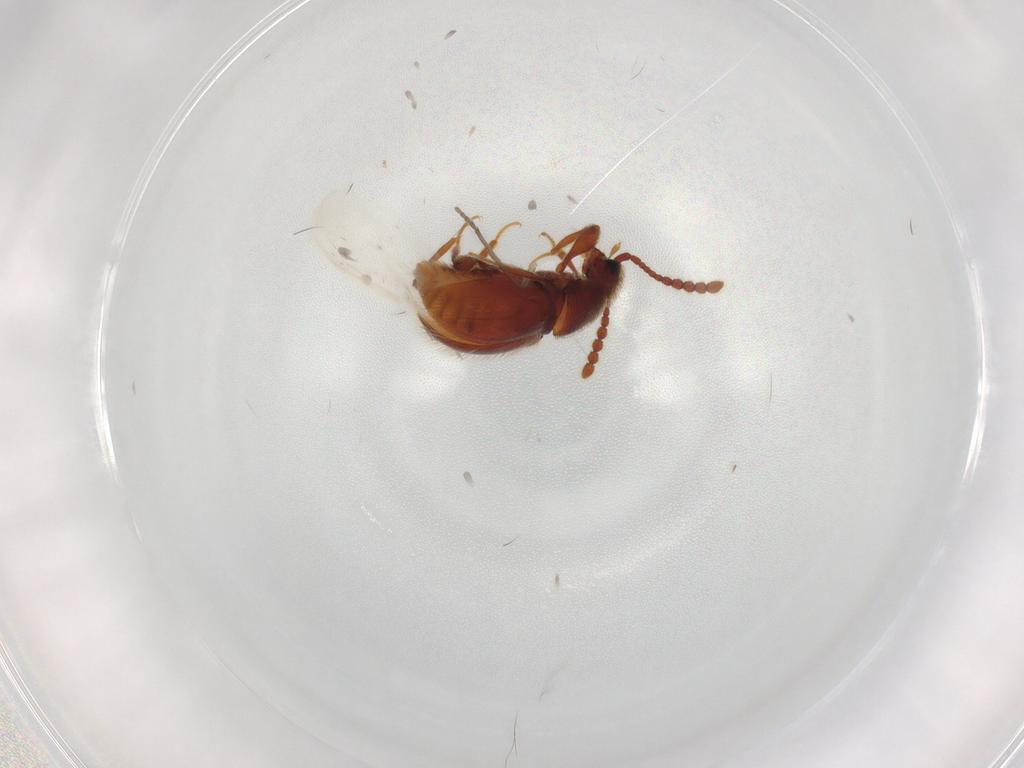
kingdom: Animalia
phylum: Arthropoda
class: Insecta
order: Coleoptera
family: Staphylinidae
